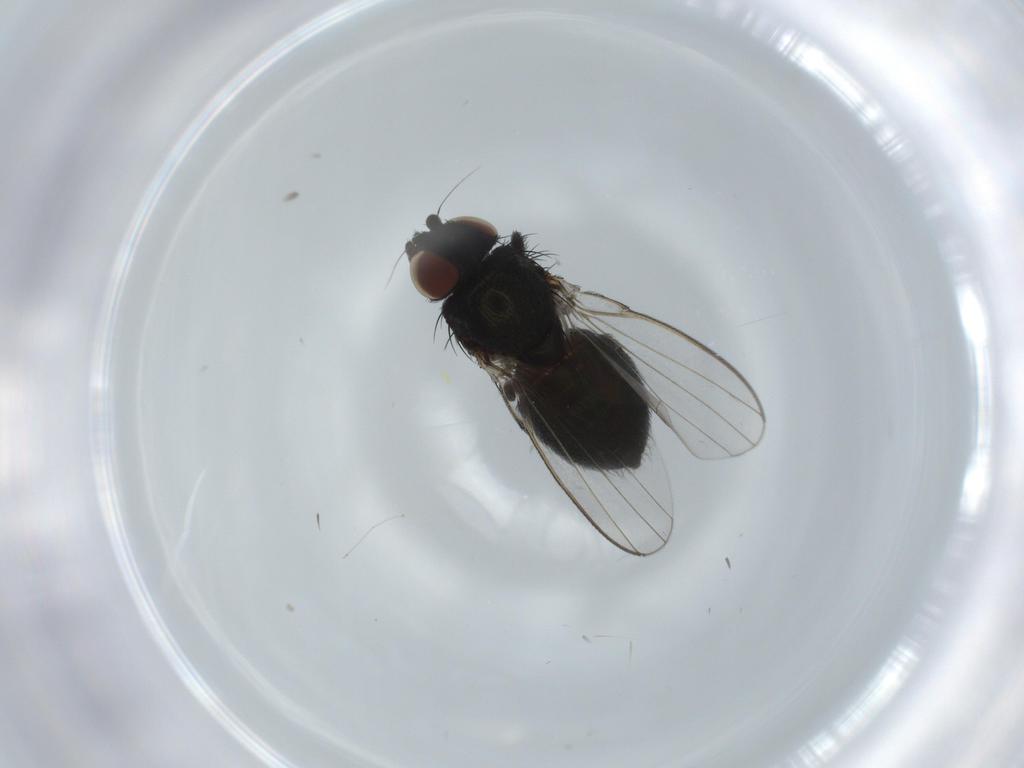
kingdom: Animalia
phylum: Arthropoda
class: Insecta
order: Diptera
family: Milichiidae
